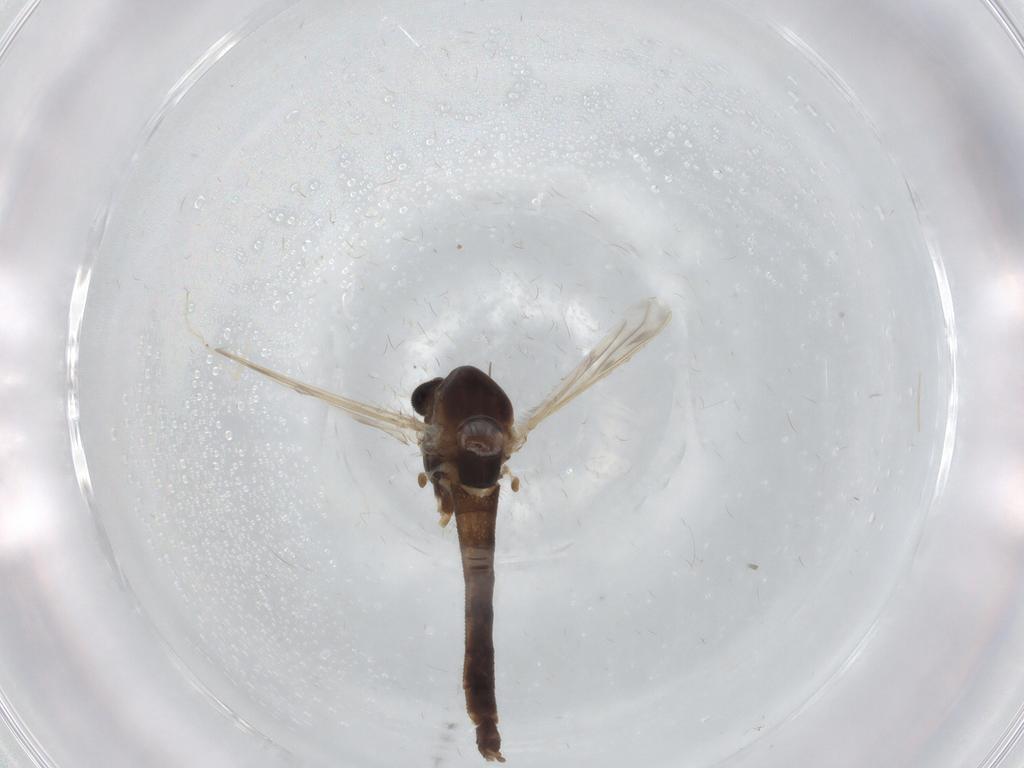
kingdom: Animalia
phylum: Arthropoda
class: Insecta
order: Diptera
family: Chironomidae
